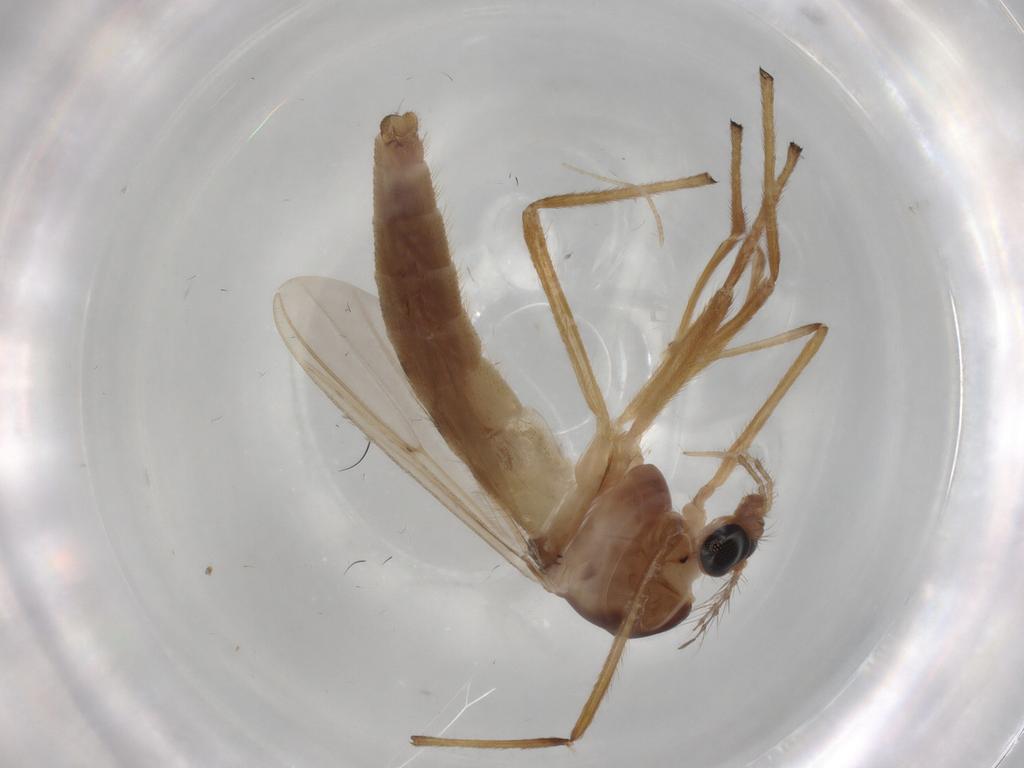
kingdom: Animalia
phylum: Arthropoda
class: Insecta
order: Diptera
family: Chironomidae
